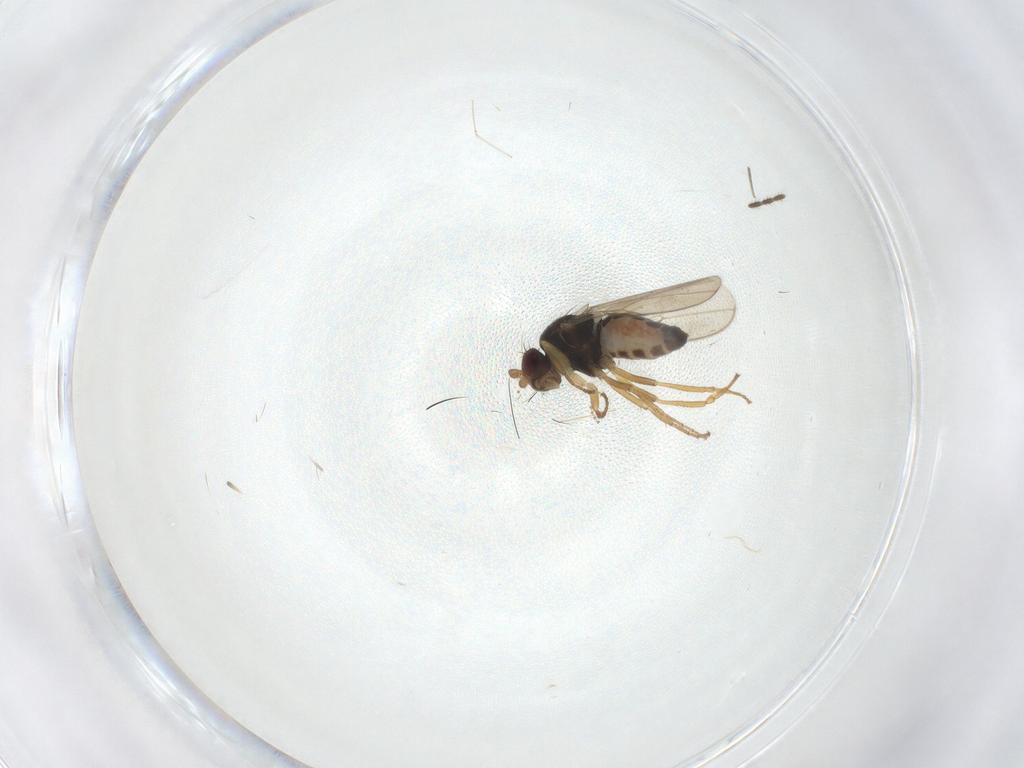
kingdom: Animalia
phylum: Arthropoda
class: Insecta
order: Diptera
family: Sphaeroceridae
